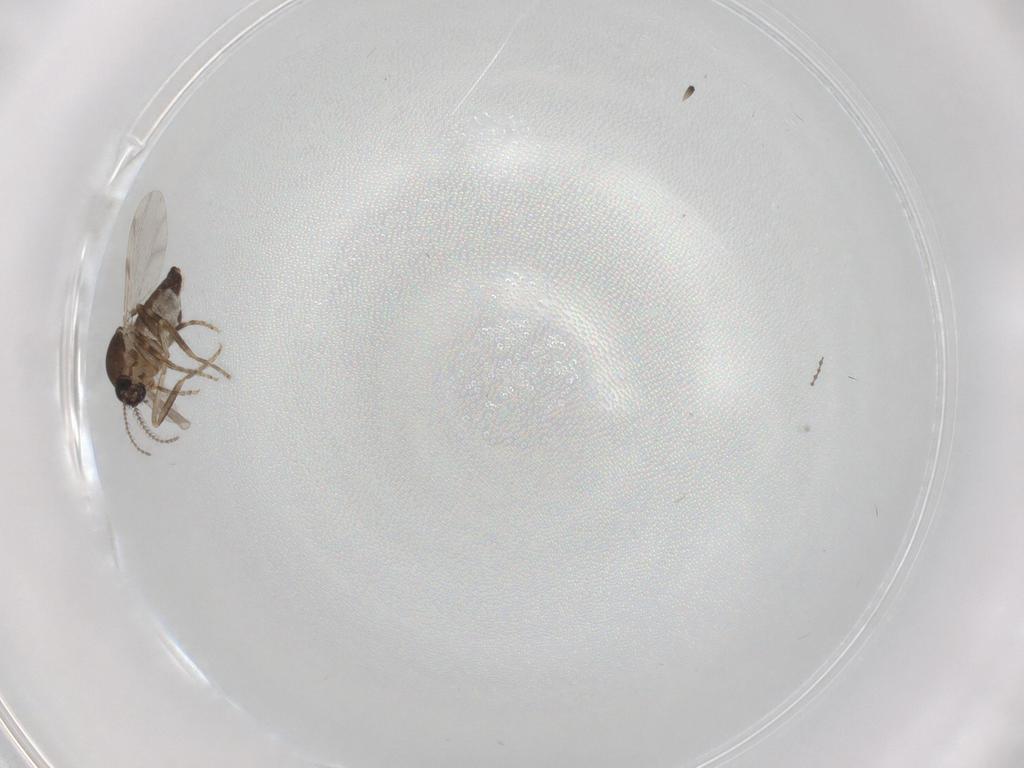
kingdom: Animalia
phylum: Arthropoda
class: Insecta
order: Diptera
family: Ceratopogonidae
